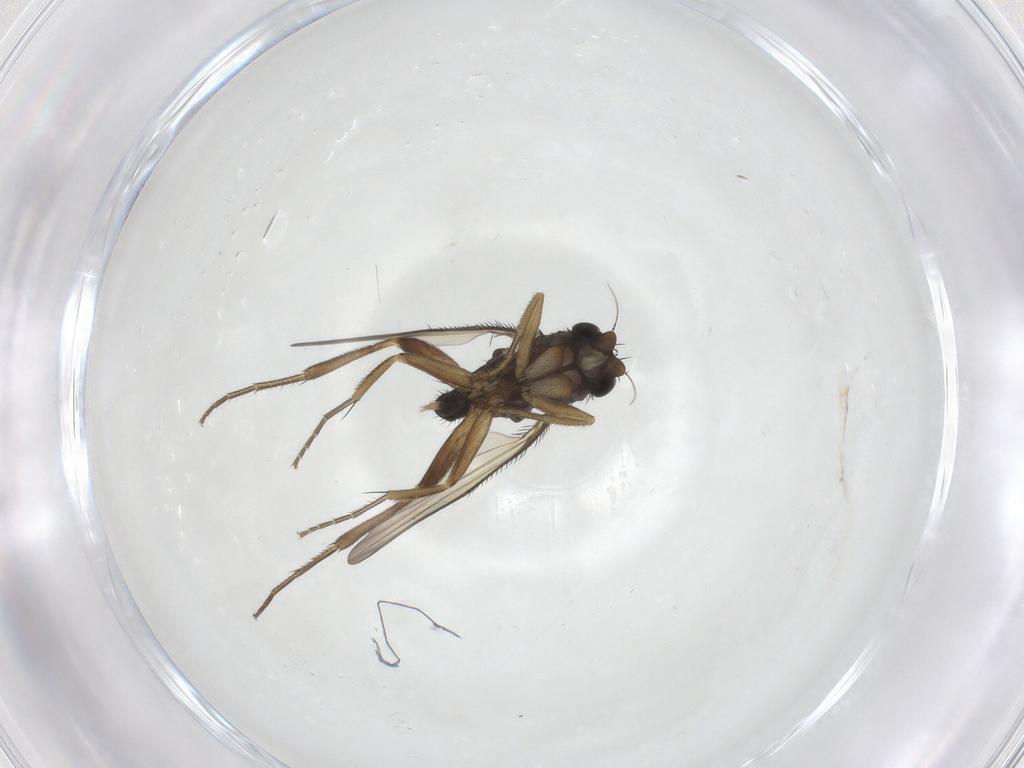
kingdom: Animalia
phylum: Arthropoda
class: Insecta
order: Diptera
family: Phoridae
